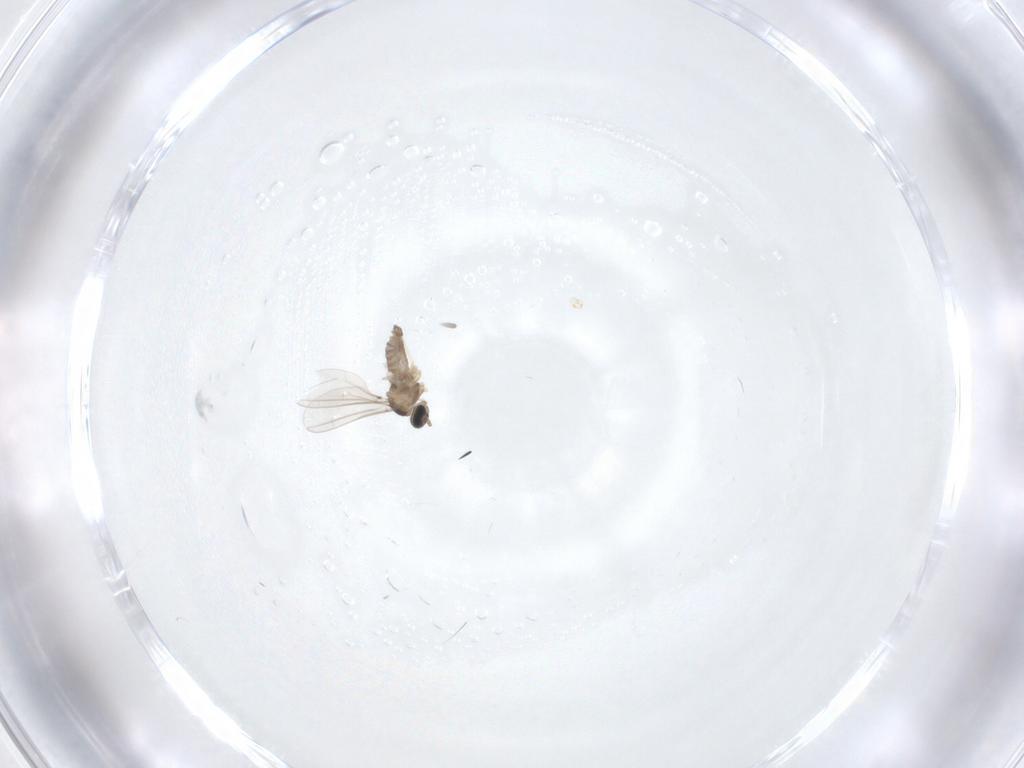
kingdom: Animalia
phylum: Arthropoda
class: Insecta
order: Diptera
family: Cecidomyiidae
